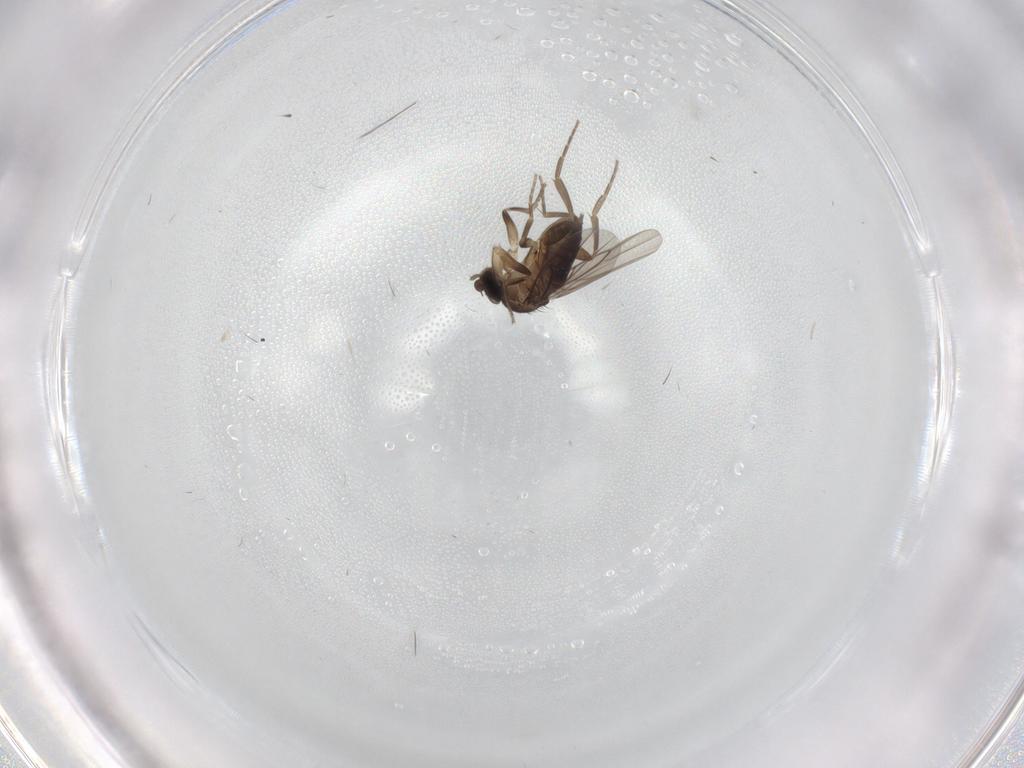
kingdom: Animalia
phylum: Arthropoda
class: Insecta
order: Diptera
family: Phoridae
